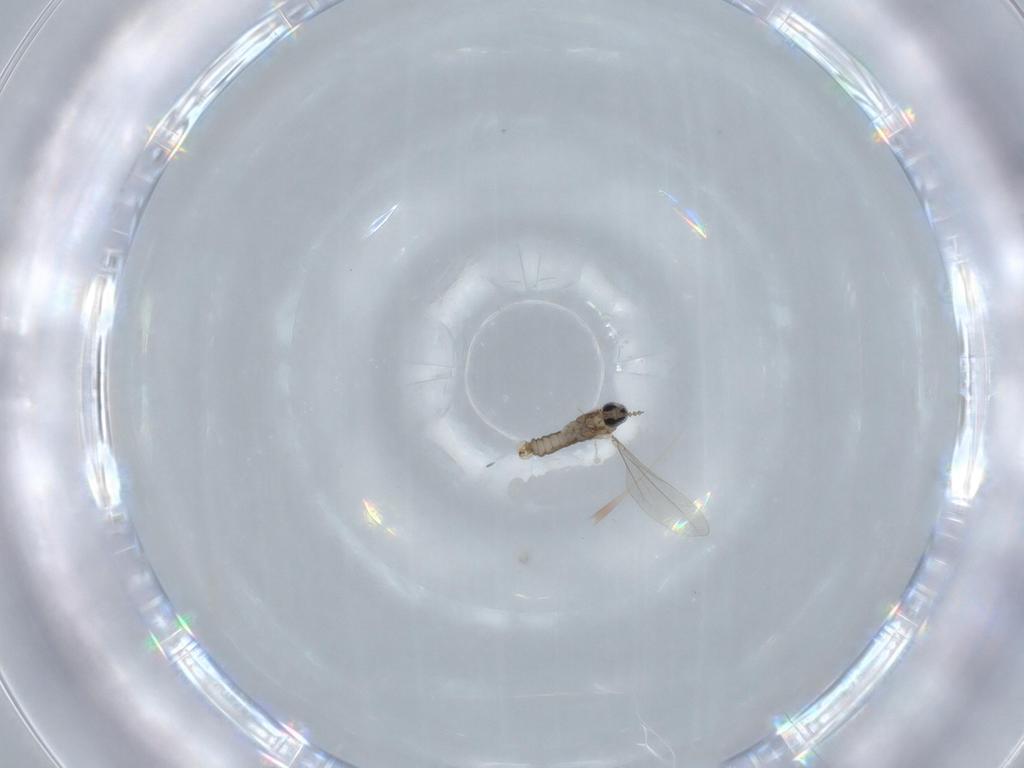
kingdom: Animalia
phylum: Arthropoda
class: Insecta
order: Diptera
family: Cecidomyiidae
